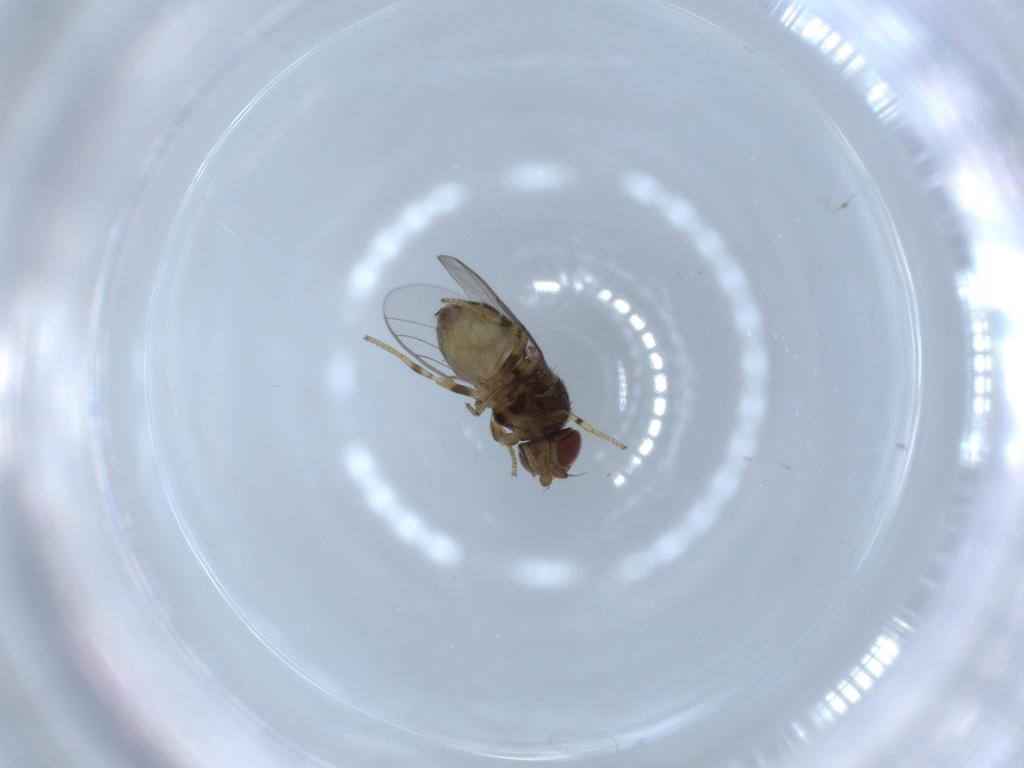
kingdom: Animalia
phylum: Arthropoda
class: Insecta
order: Diptera
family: Chloropidae
